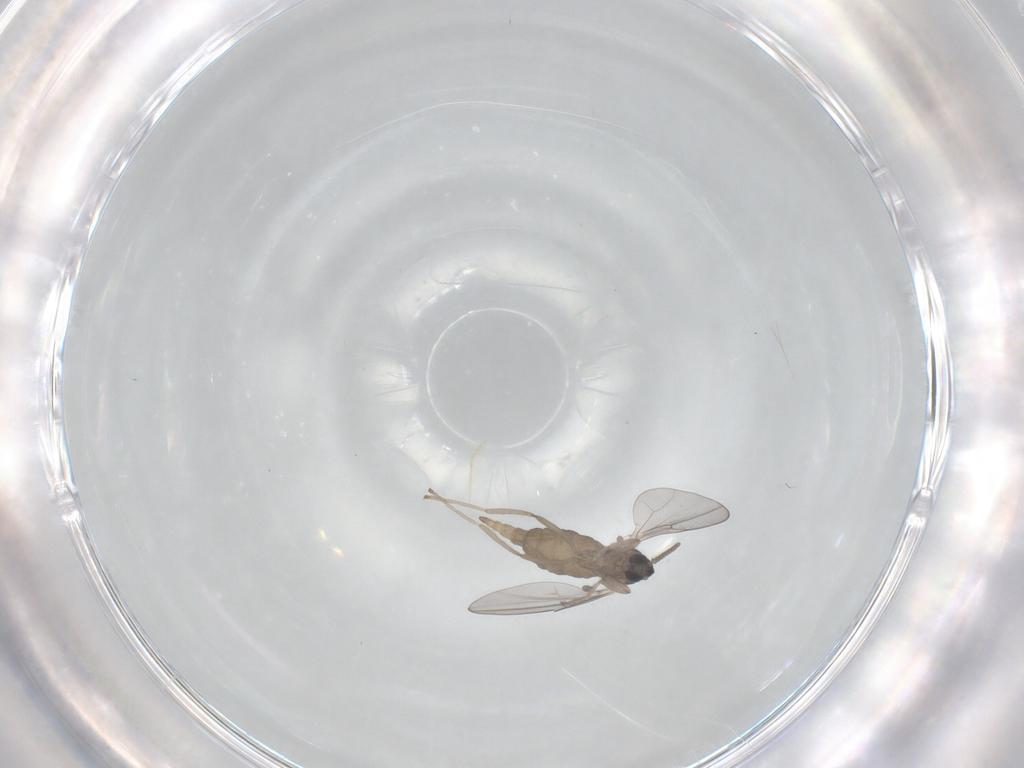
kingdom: Animalia
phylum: Arthropoda
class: Insecta
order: Diptera
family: Cecidomyiidae
